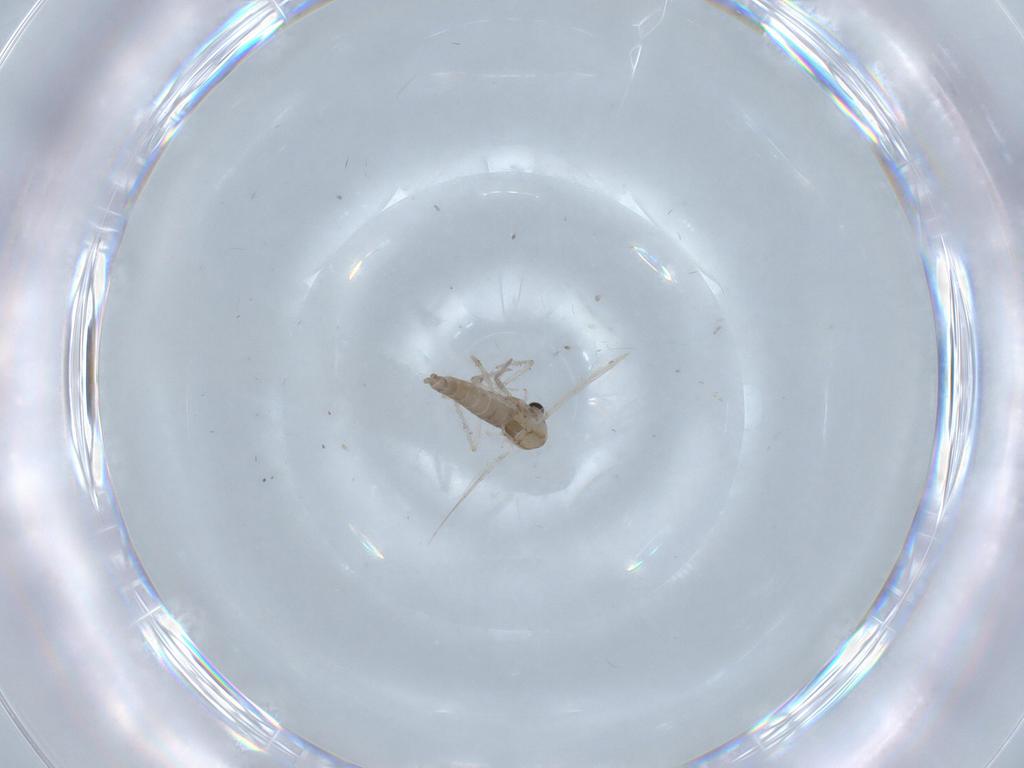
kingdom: Animalia
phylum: Arthropoda
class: Insecta
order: Diptera
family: Chironomidae
